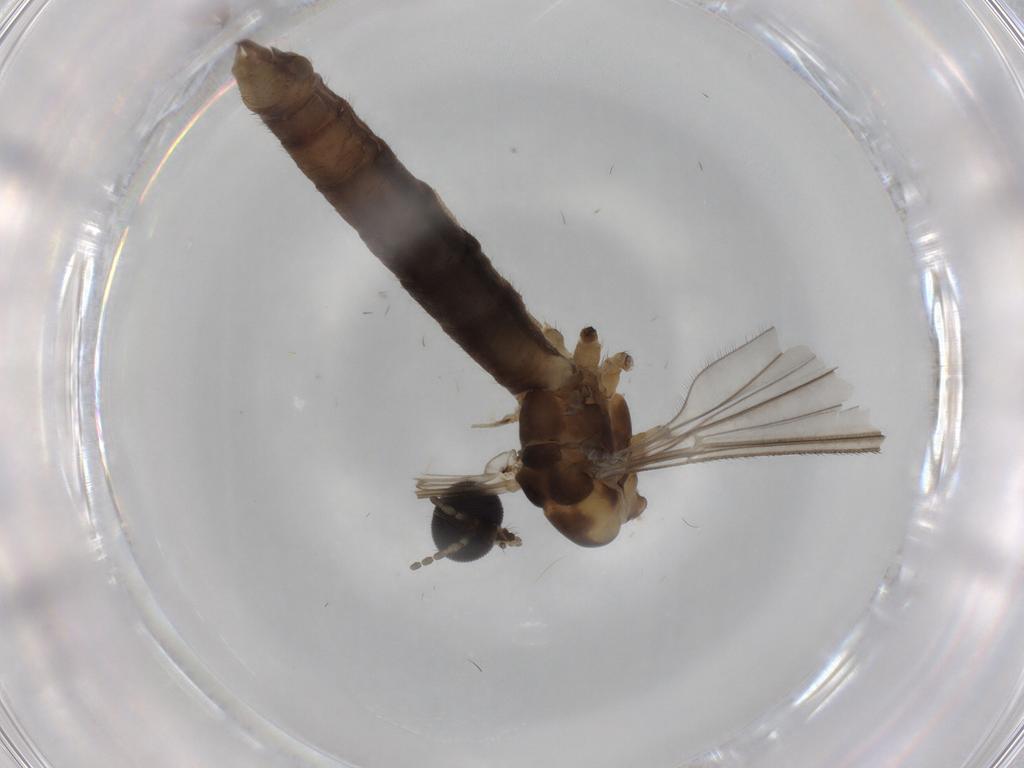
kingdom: Animalia
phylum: Arthropoda
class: Insecta
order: Diptera
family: Limoniidae
